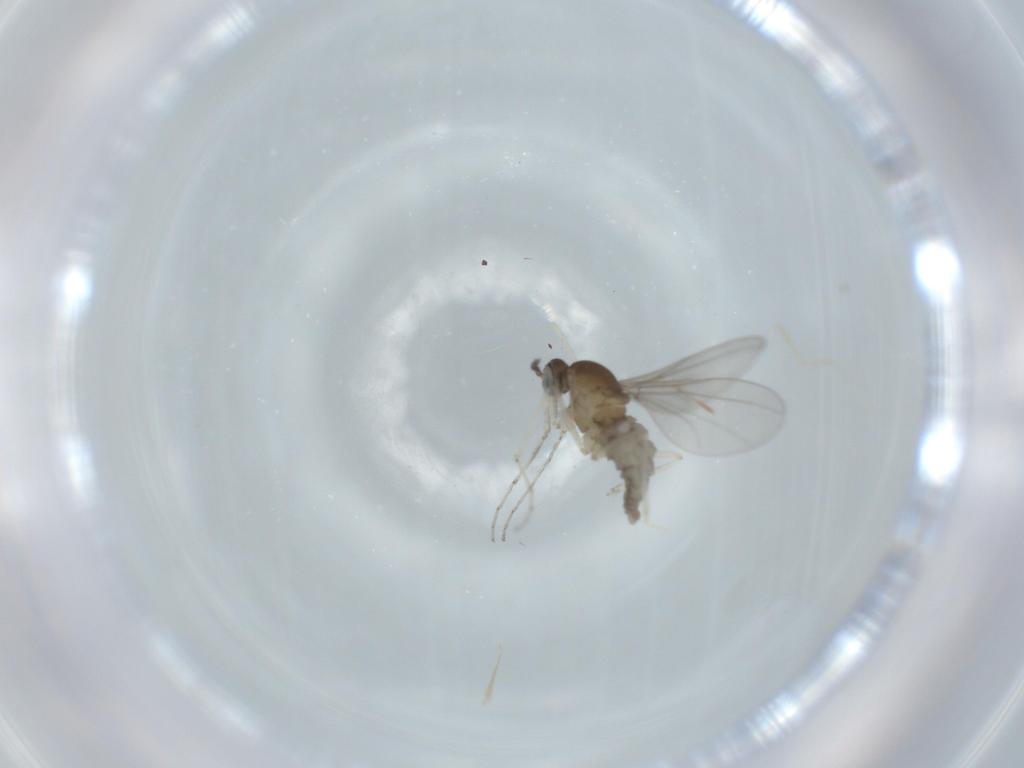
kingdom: Animalia
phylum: Arthropoda
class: Insecta
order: Diptera
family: Cecidomyiidae
